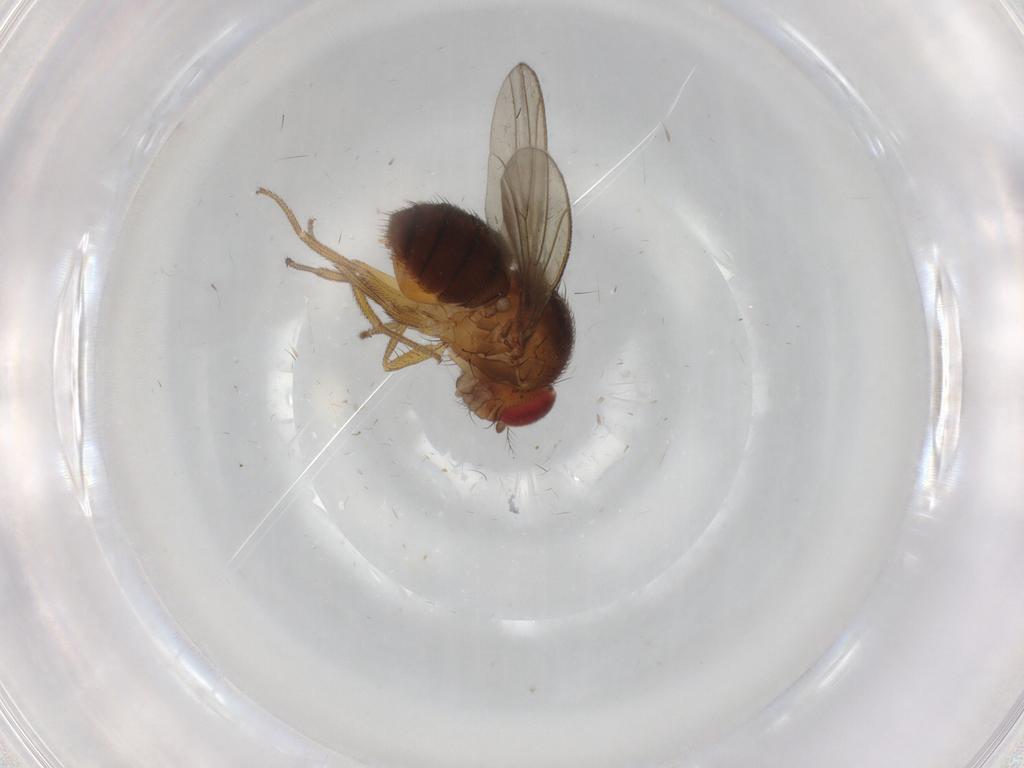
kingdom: Animalia
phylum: Arthropoda
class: Insecta
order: Diptera
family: Drosophilidae
